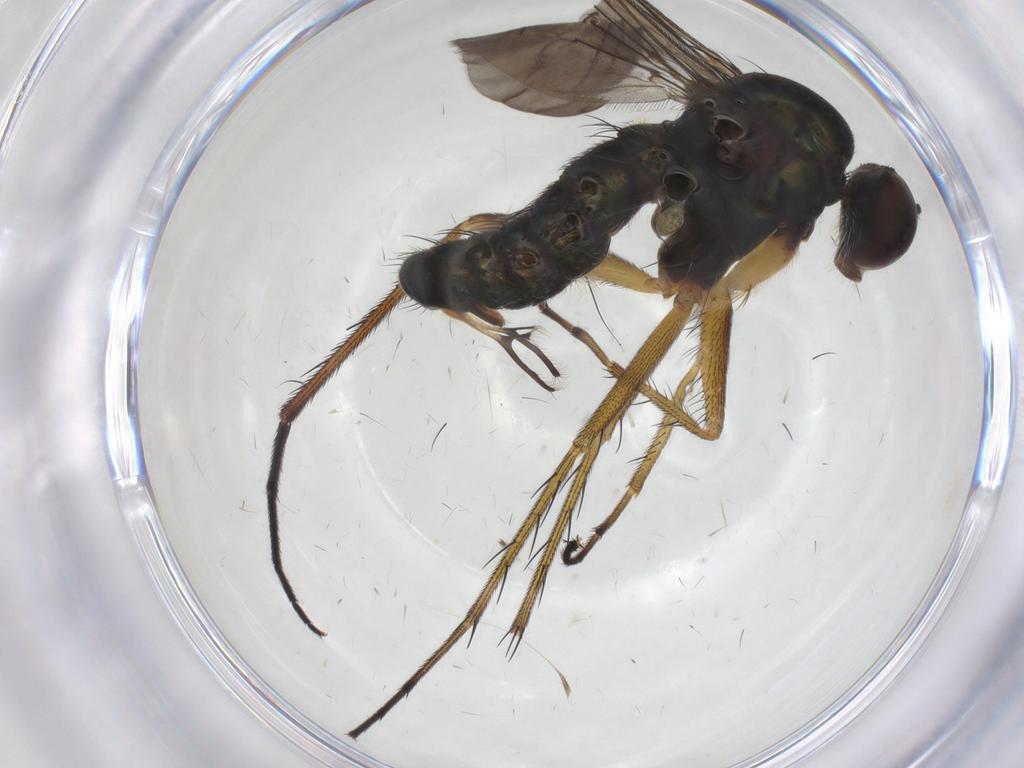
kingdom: Animalia
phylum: Arthropoda
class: Insecta
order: Diptera
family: Dolichopodidae
